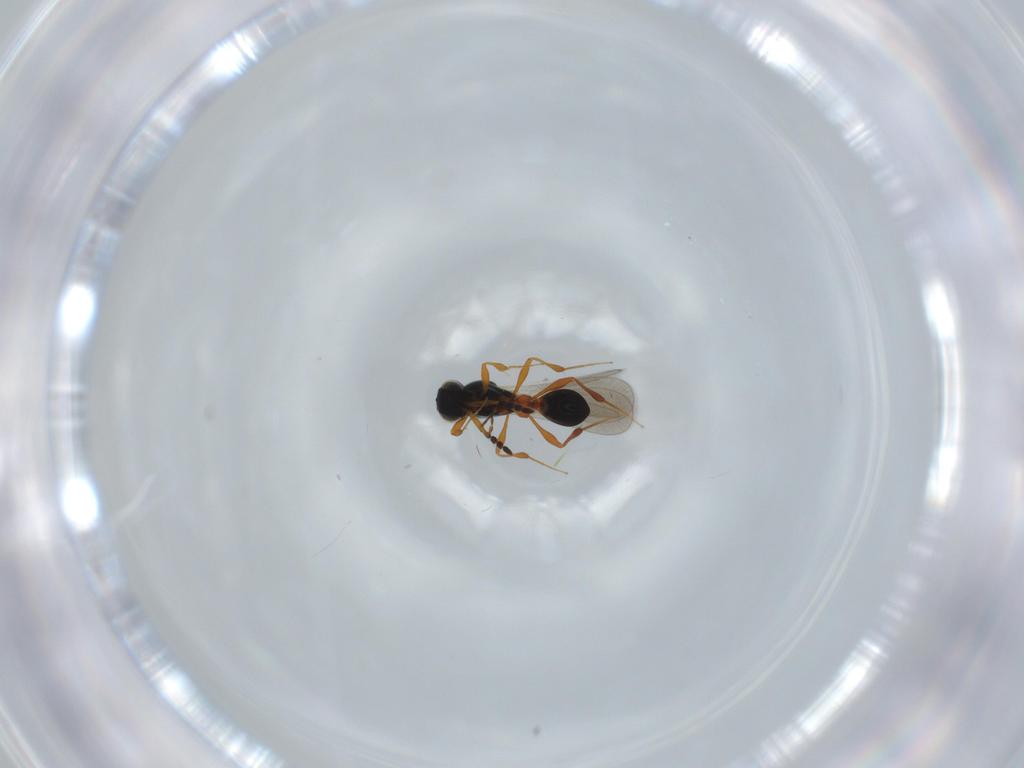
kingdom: Animalia
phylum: Arthropoda
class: Insecta
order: Hymenoptera
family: Platygastridae
